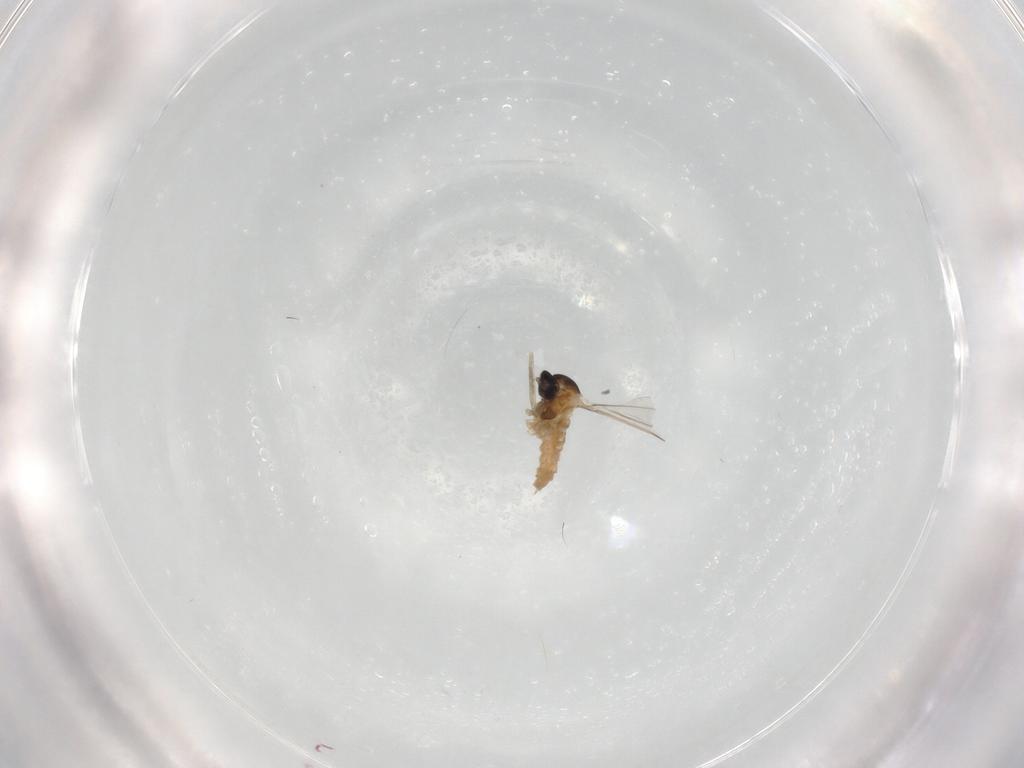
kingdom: Animalia
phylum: Arthropoda
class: Insecta
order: Diptera
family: Cecidomyiidae
